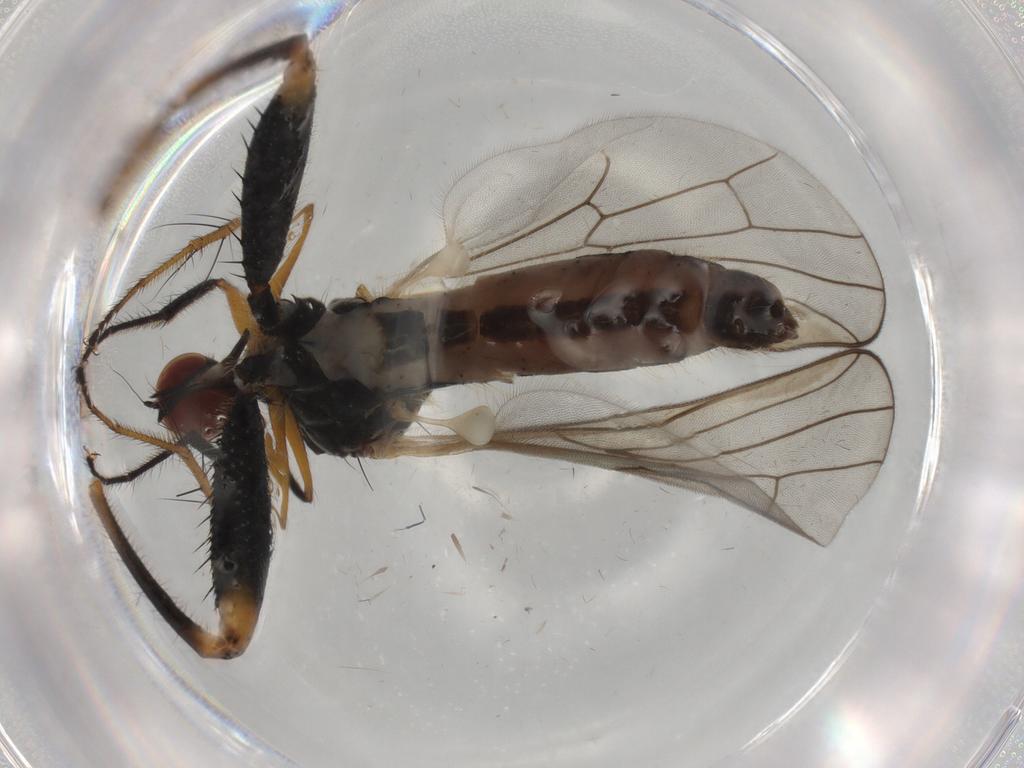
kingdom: Animalia
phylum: Arthropoda
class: Insecta
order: Diptera
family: Hybotidae
